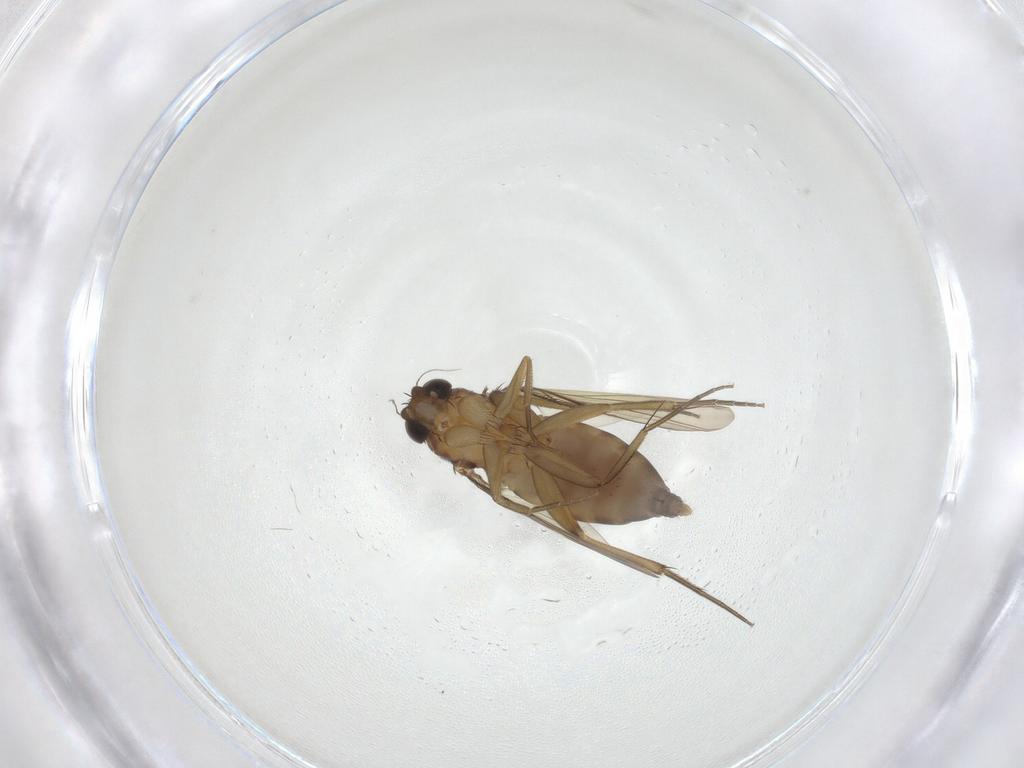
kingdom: Animalia
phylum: Arthropoda
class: Insecta
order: Diptera
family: Phoridae
